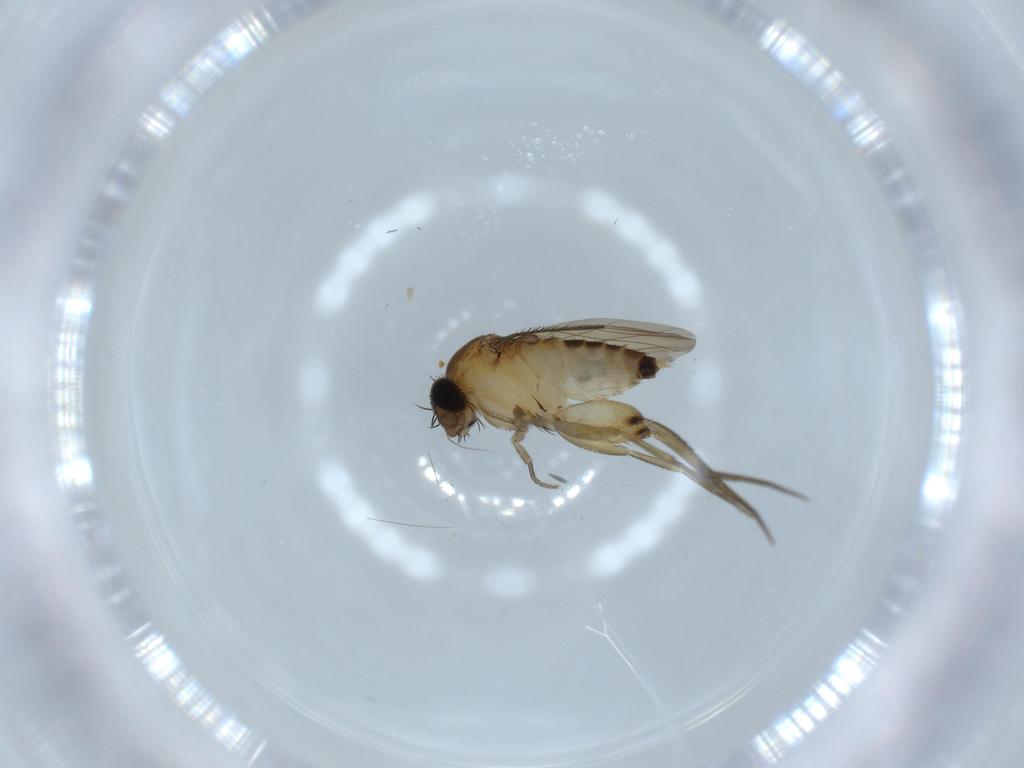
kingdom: Animalia
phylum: Arthropoda
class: Insecta
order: Diptera
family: Phoridae
